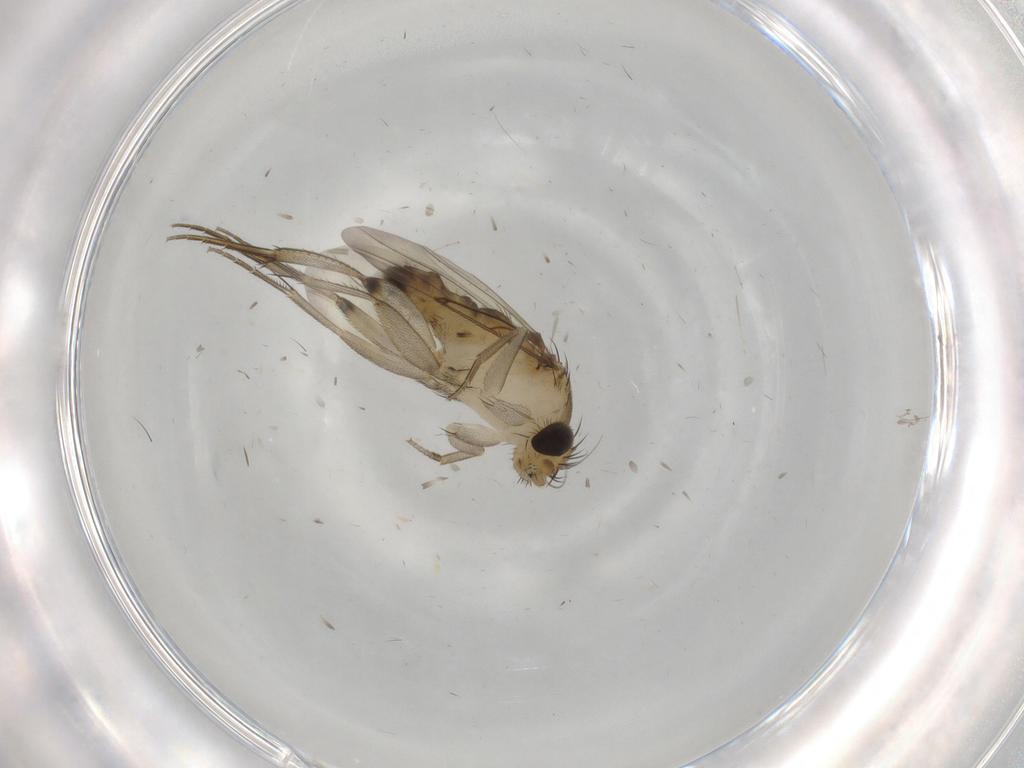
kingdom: Animalia
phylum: Arthropoda
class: Insecta
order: Diptera
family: Phoridae
